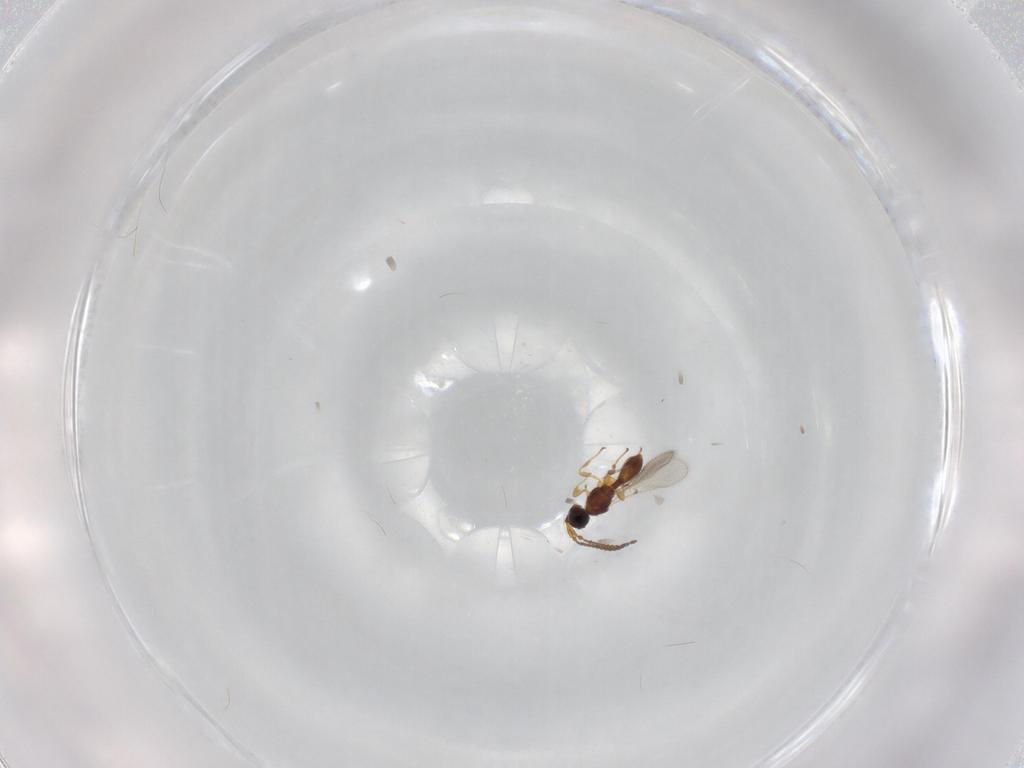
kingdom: Animalia
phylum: Arthropoda
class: Insecta
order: Hymenoptera
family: Diapriidae
